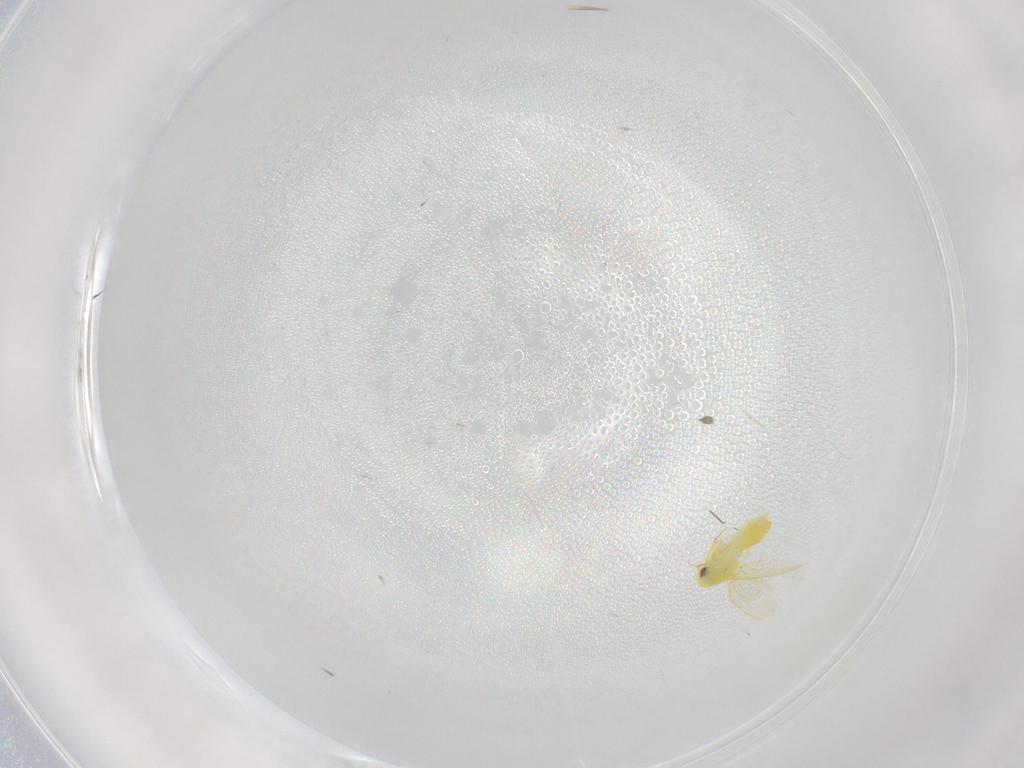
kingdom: Animalia
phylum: Arthropoda
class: Insecta
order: Hemiptera
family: Aleyrodidae
